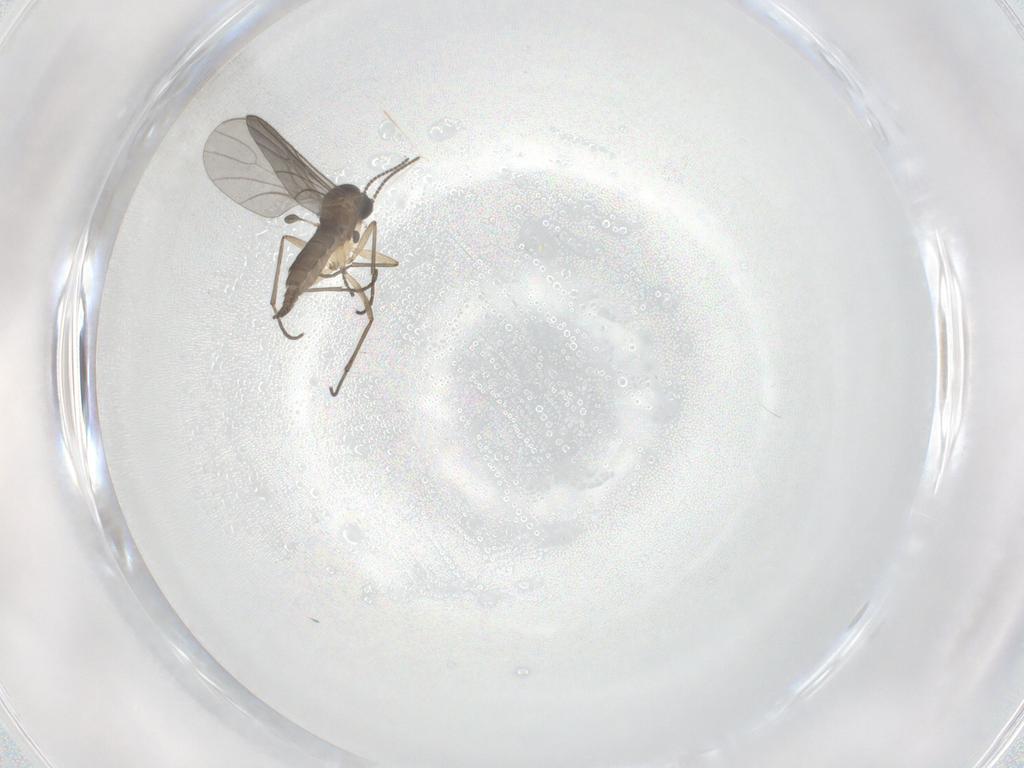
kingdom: Animalia
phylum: Arthropoda
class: Insecta
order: Diptera
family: Sciaridae
